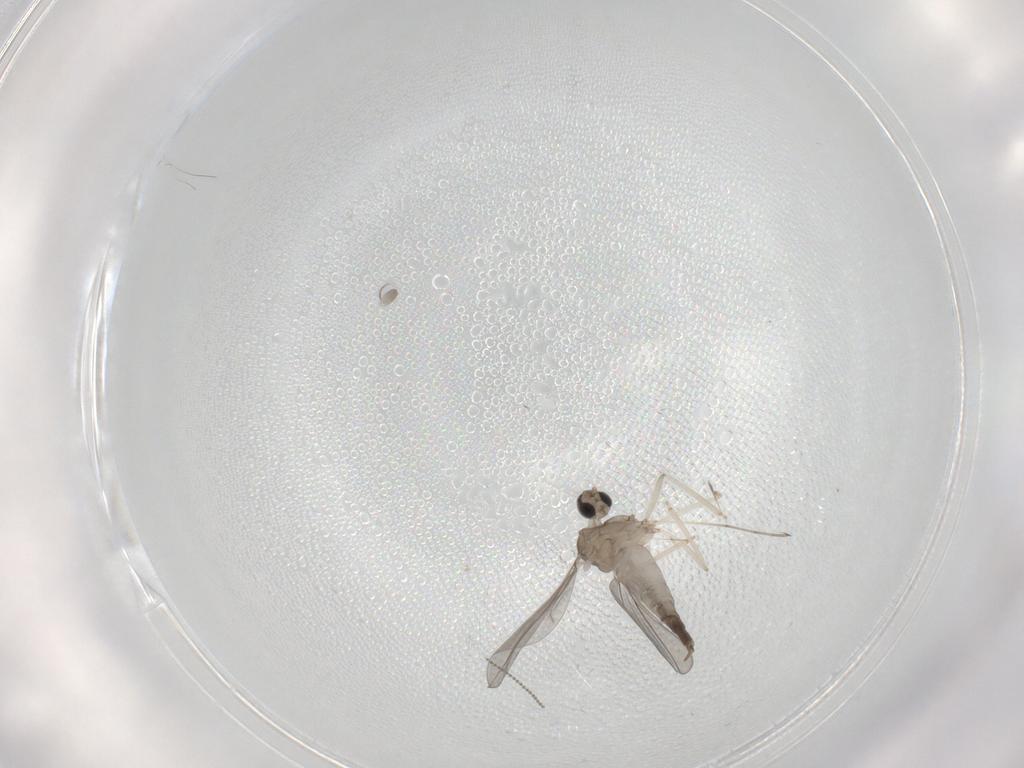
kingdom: Animalia
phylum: Arthropoda
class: Insecta
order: Diptera
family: Cecidomyiidae
